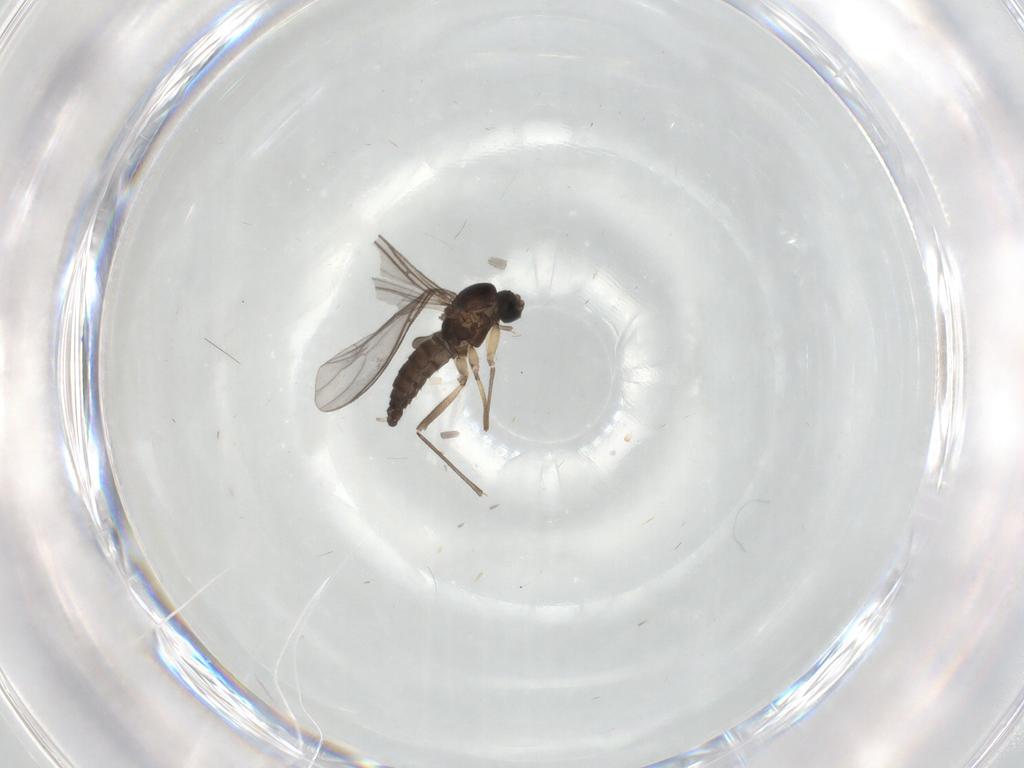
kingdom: Animalia
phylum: Arthropoda
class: Insecta
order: Diptera
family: Sciaridae
